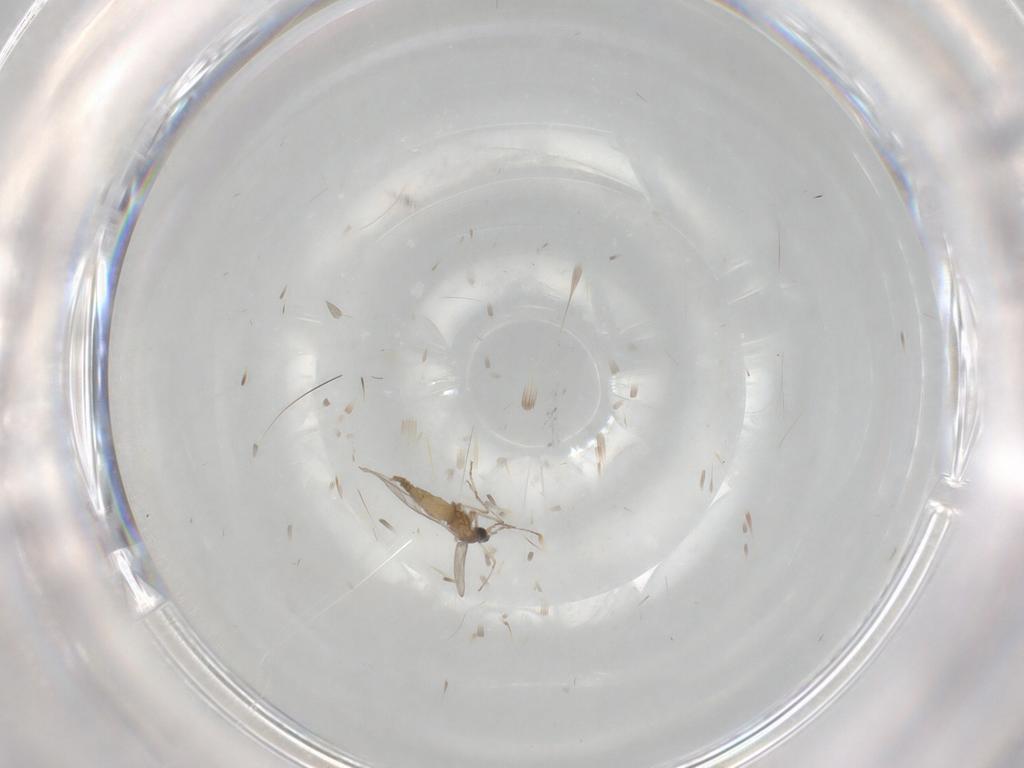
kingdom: Animalia
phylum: Arthropoda
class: Insecta
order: Diptera
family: Cecidomyiidae
